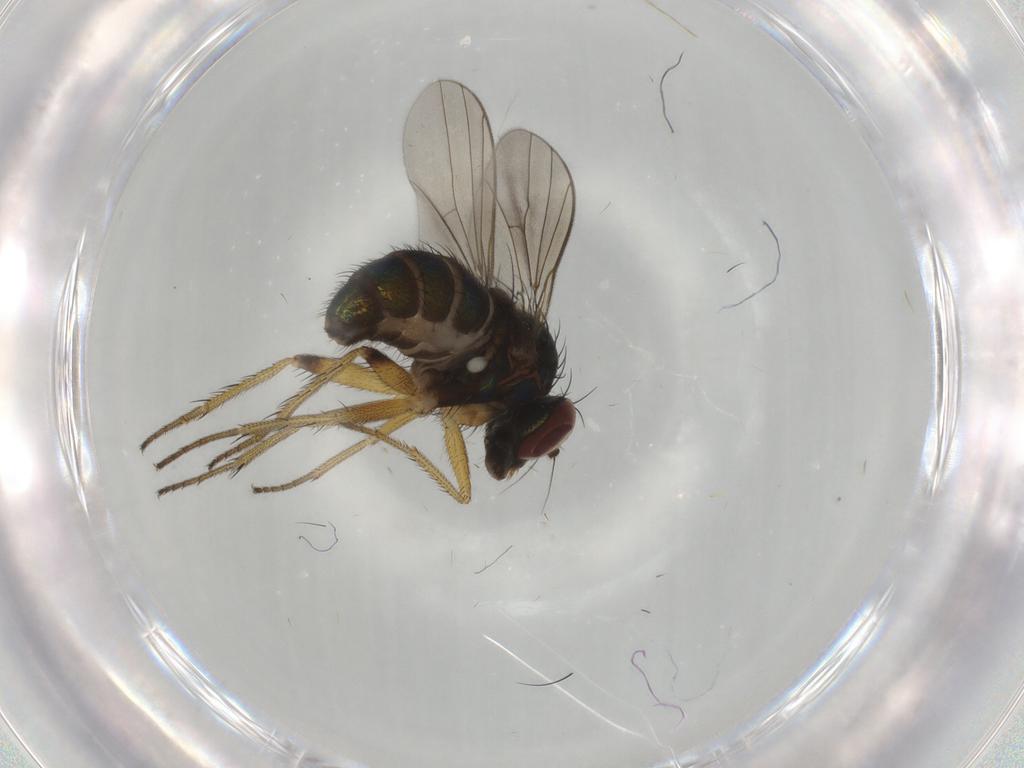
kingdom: Animalia
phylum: Arthropoda
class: Insecta
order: Diptera
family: Dolichopodidae
